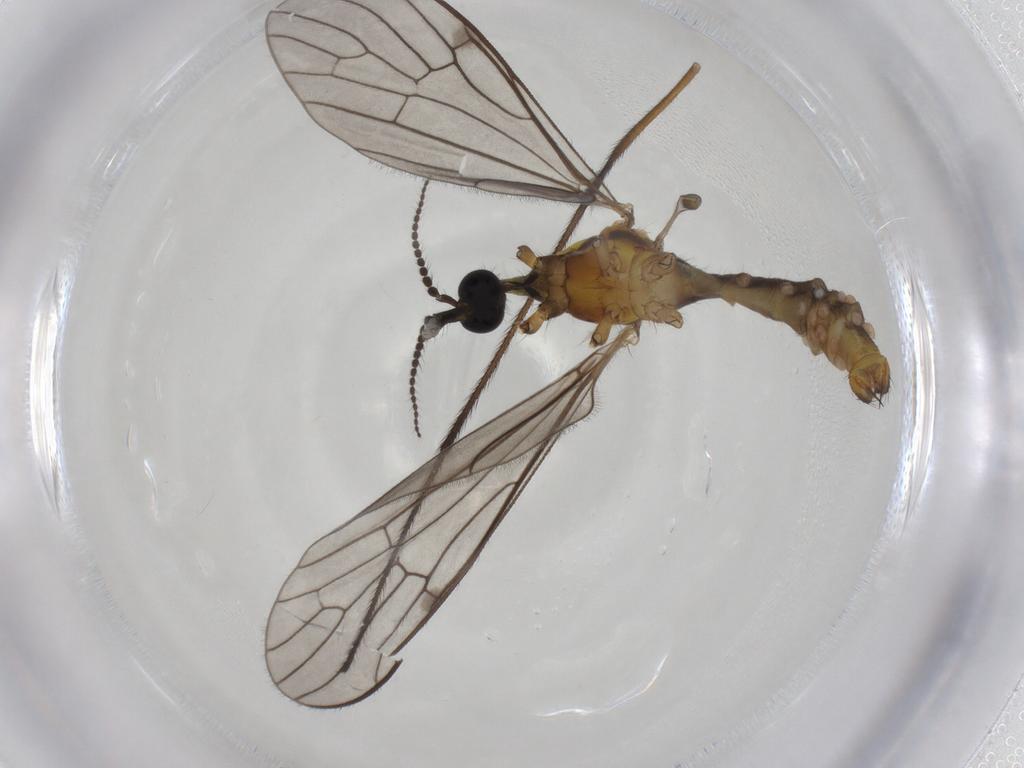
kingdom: Animalia
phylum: Arthropoda
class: Insecta
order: Diptera
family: Limoniidae
